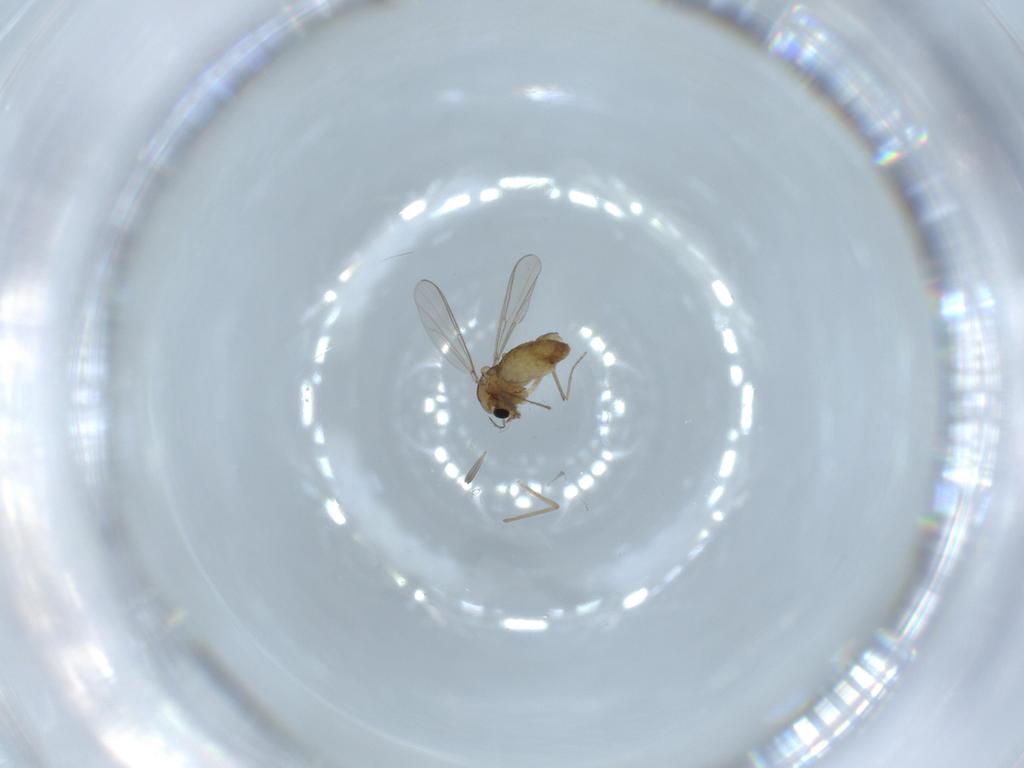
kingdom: Animalia
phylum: Arthropoda
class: Insecta
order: Diptera
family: Chironomidae
